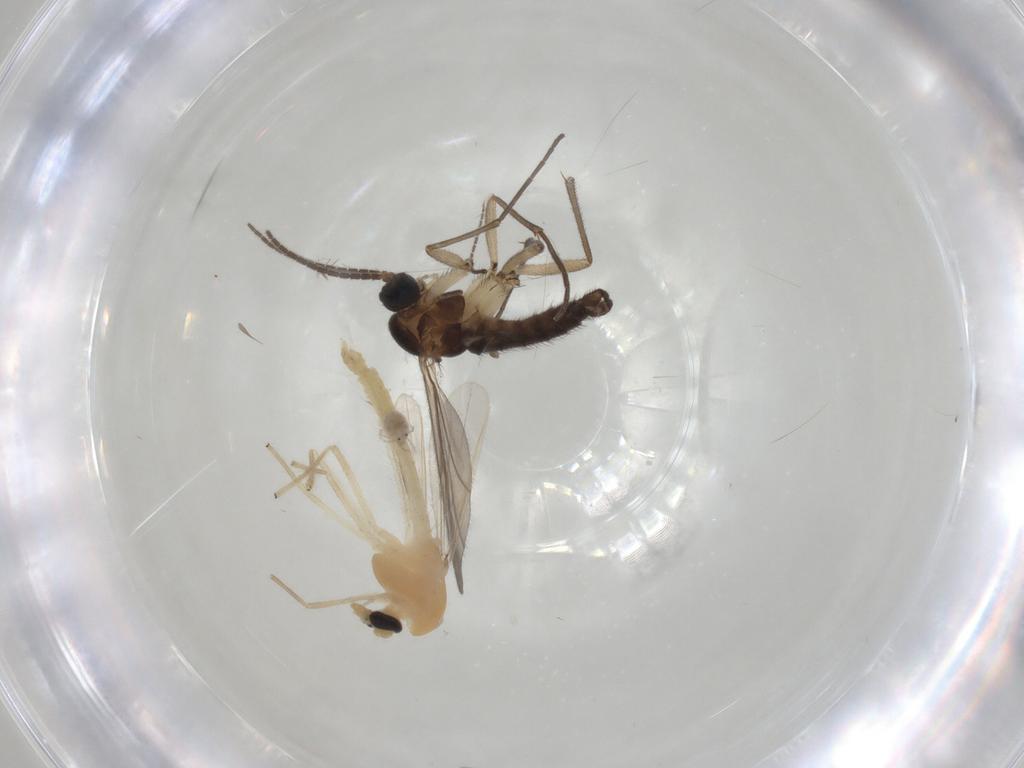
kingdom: Animalia
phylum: Arthropoda
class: Insecta
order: Diptera
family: Chironomidae
